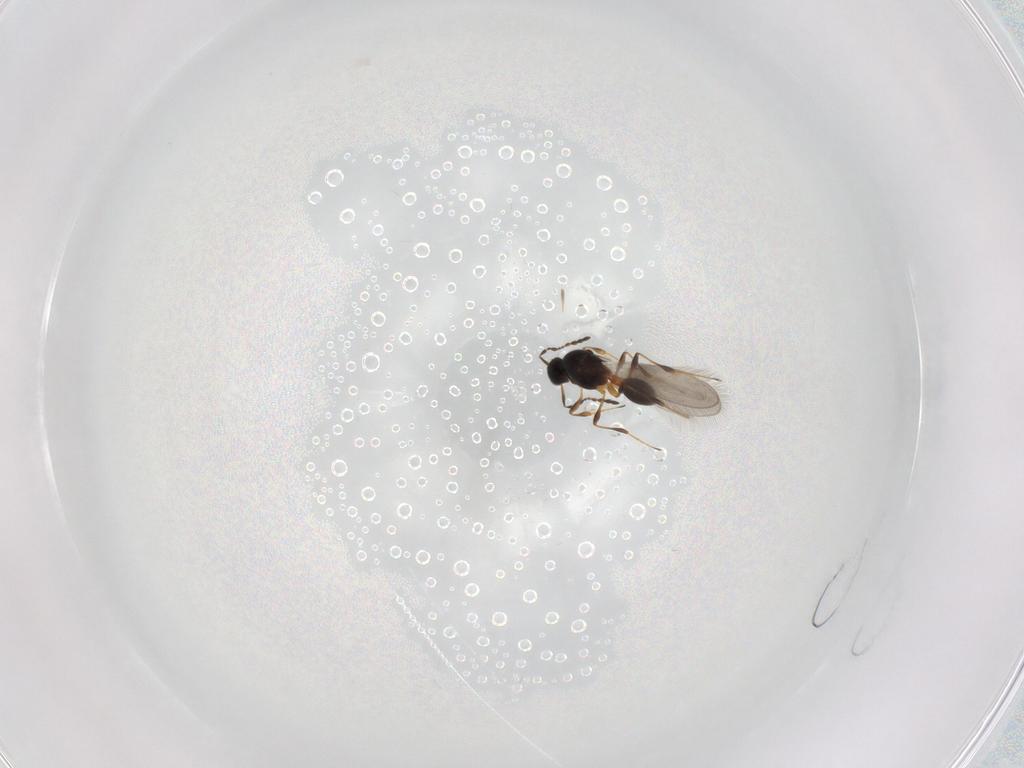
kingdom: Animalia
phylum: Arthropoda
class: Insecta
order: Hymenoptera
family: Platygastridae
